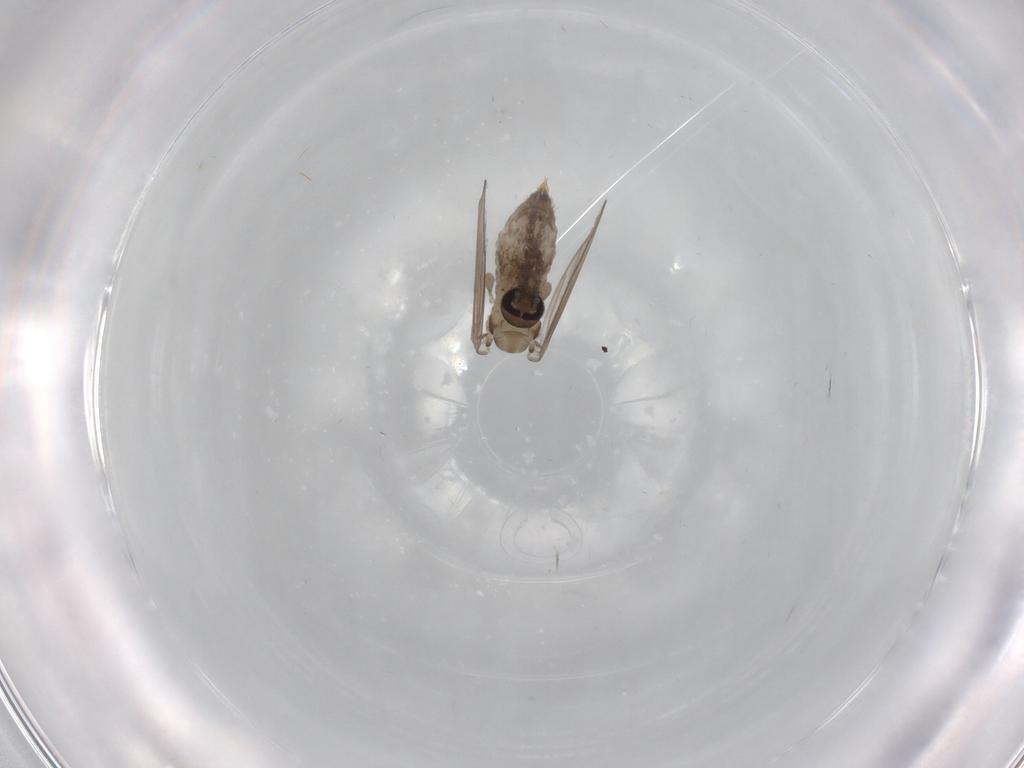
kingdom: Animalia
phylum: Arthropoda
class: Insecta
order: Diptera
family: Psychodidae
